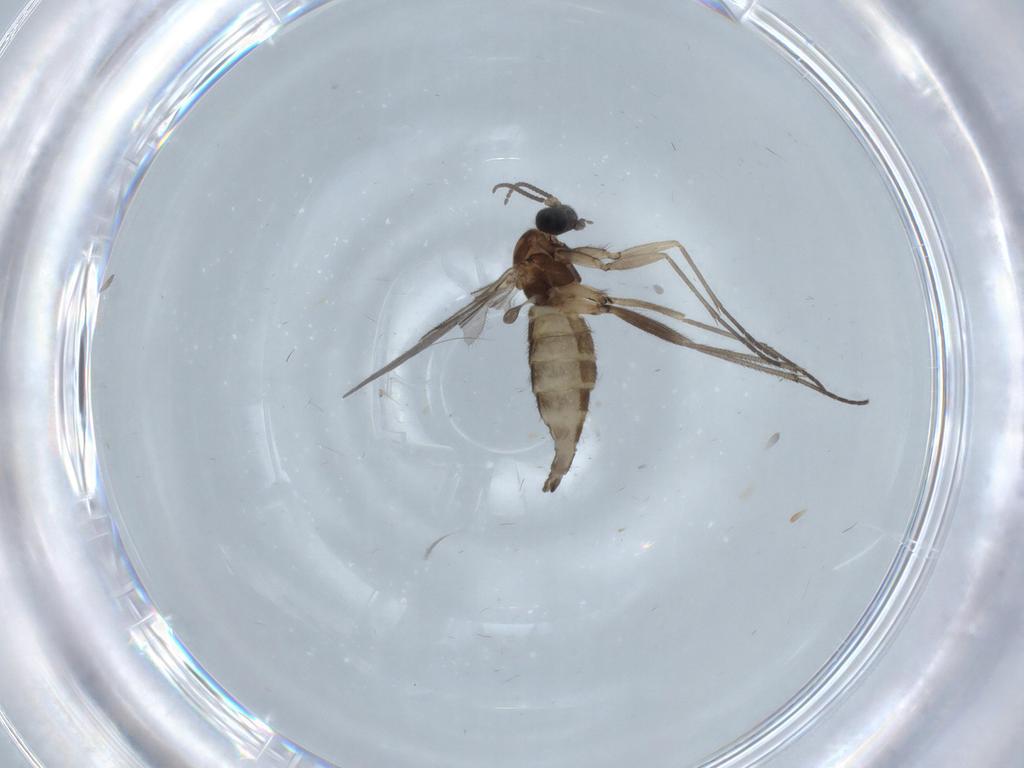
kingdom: Animalia
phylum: Arthropoda
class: Insecta
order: Diptera
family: Sciaridae
